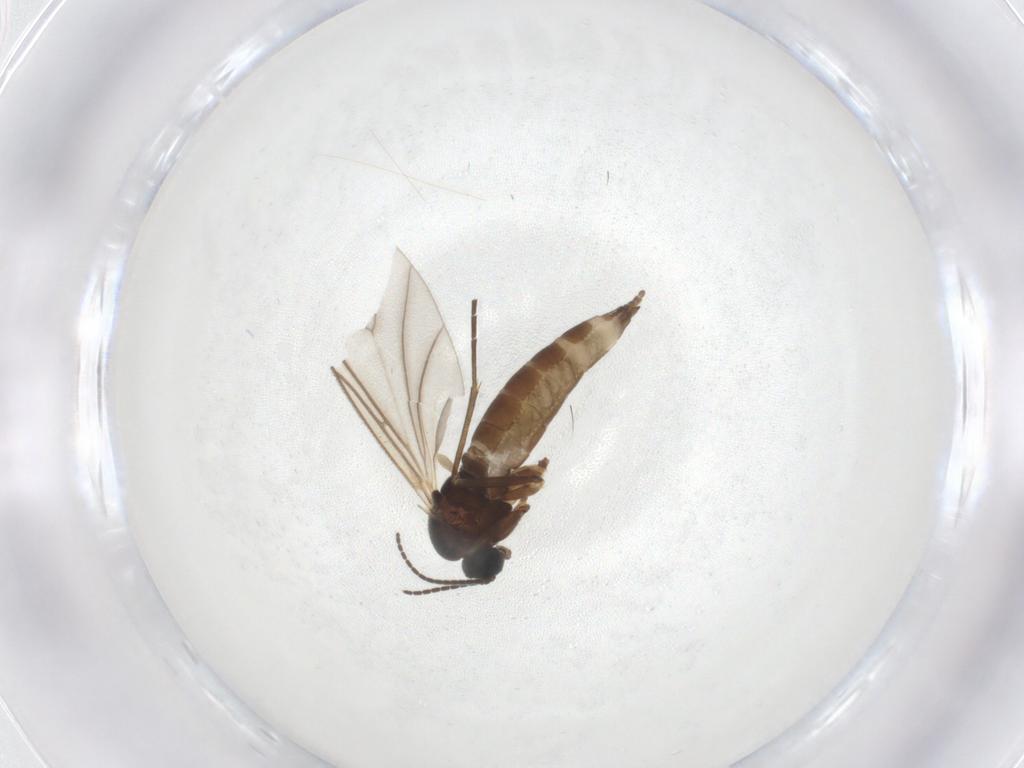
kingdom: Animalia
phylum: Arthropoda
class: Insecta
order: Diptera
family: Sciaridae
